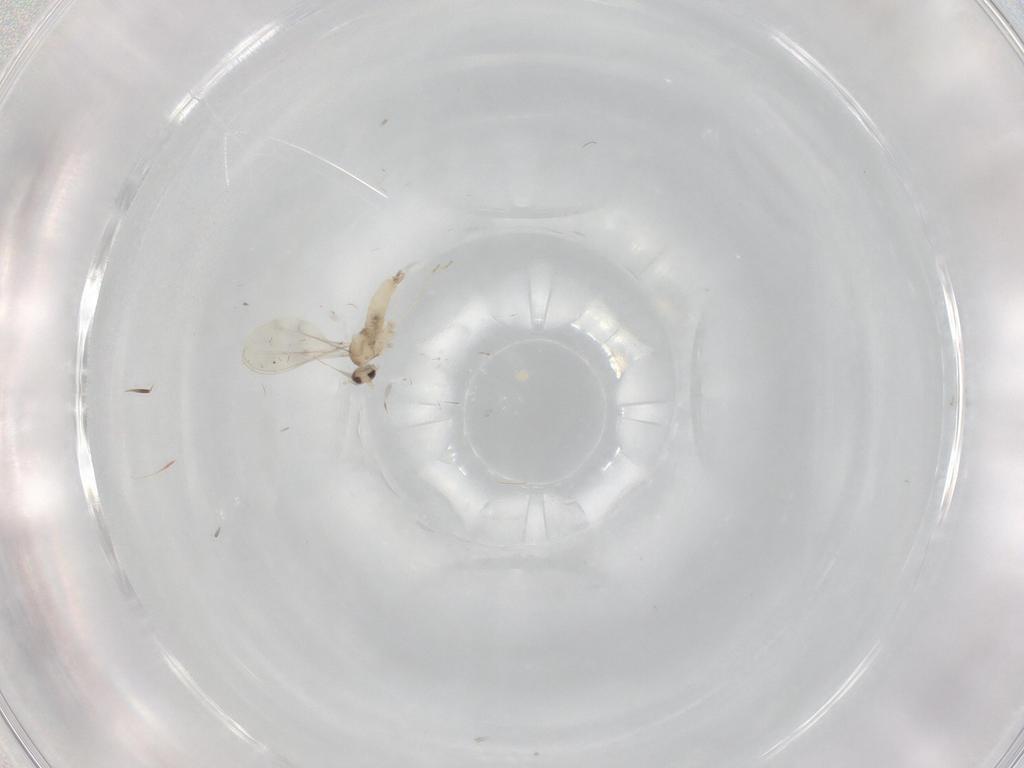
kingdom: Animalia
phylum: Arthropoda
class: Insecta
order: Diptera
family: Cecidomyiidae
